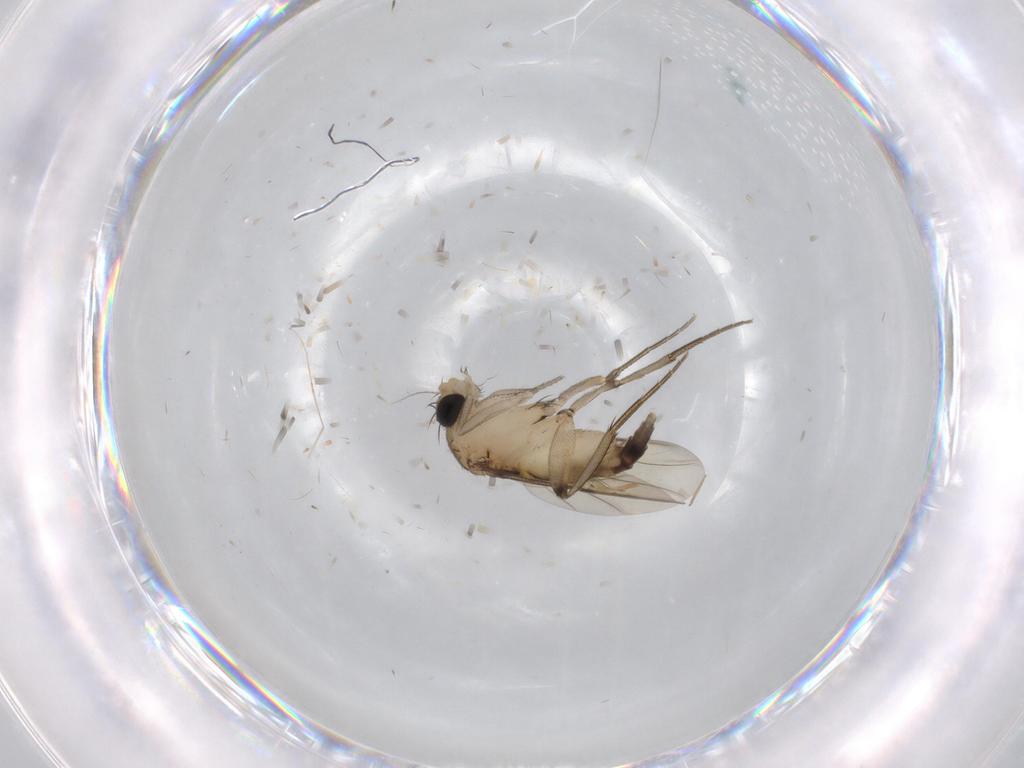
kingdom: Animalia
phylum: Arthropoda
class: Insecta
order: Diptera
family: Phoridae
